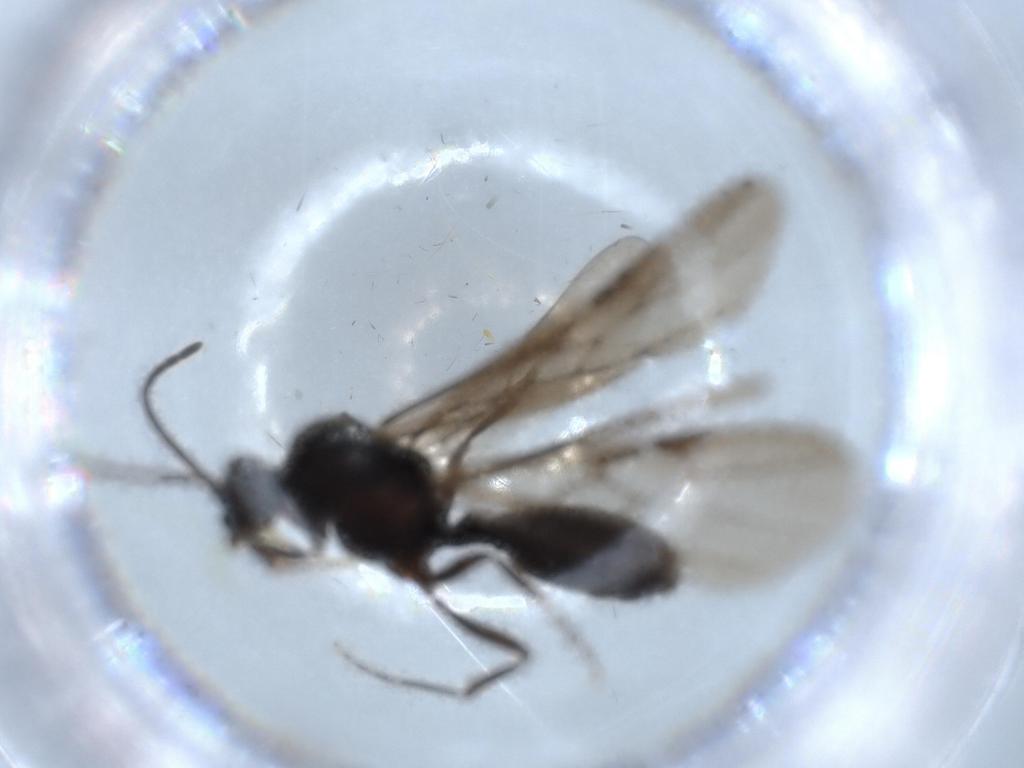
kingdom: Animalia
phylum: Arthropoda
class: Insecta
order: Hymenoptera
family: Formicidae
